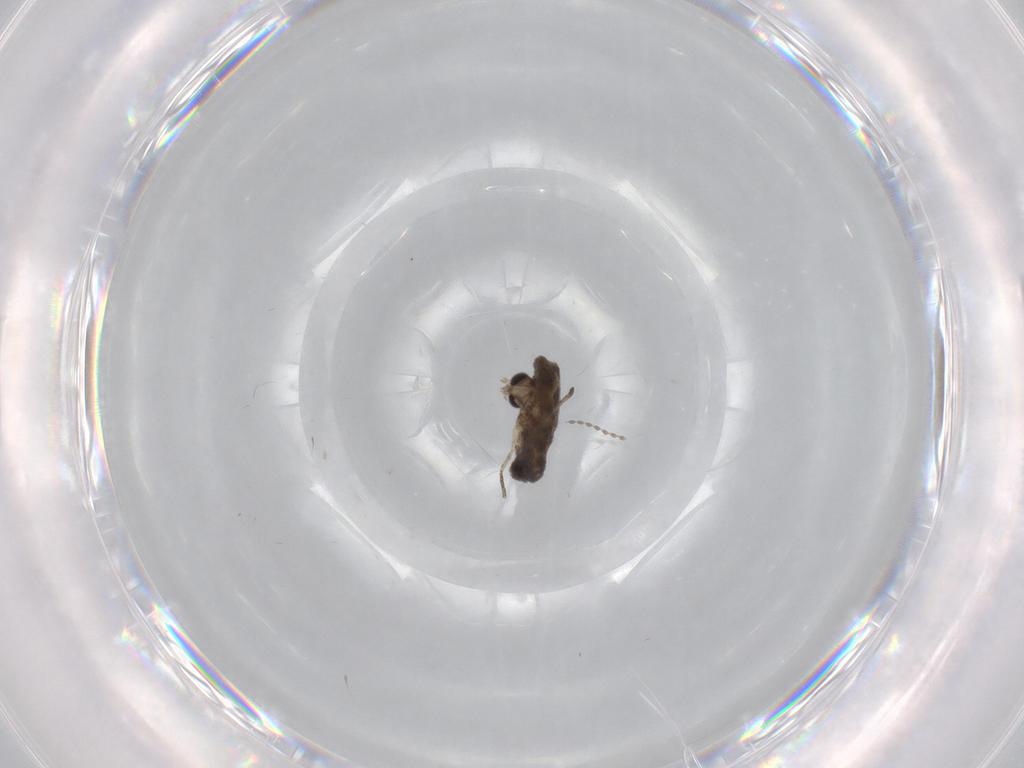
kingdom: Animalia
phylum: Arthropoda
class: Insecta
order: Diptera
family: Psychodidae
